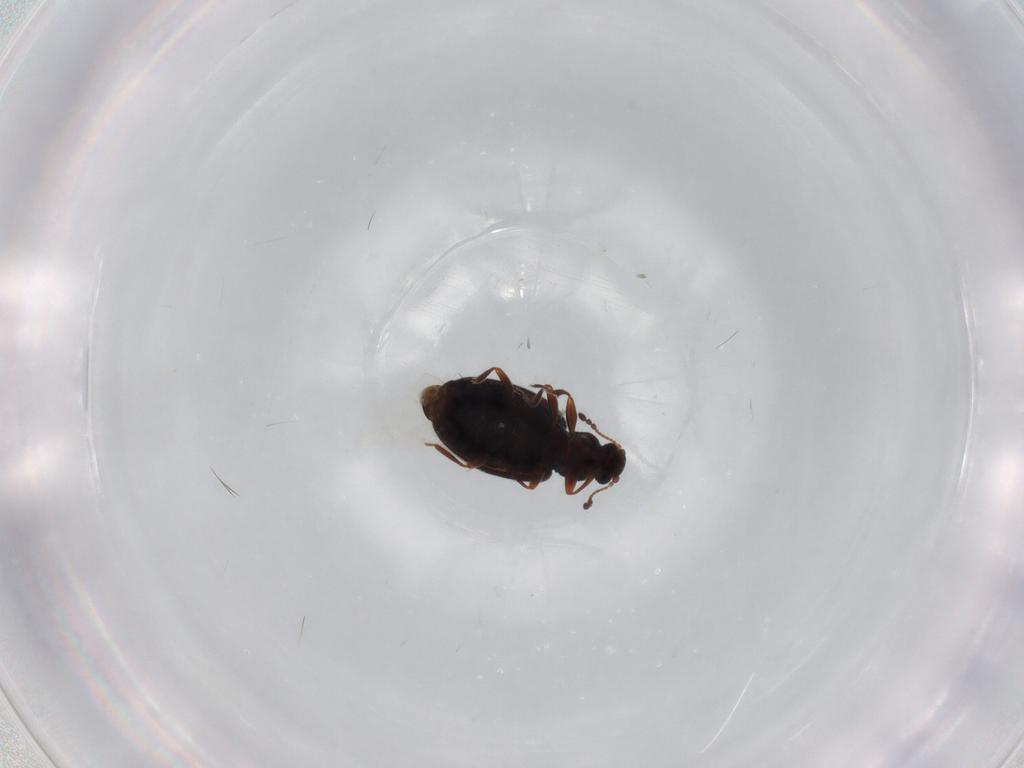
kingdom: Animalia
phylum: Arthropoda
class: Insecta
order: Coleoptera
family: Latridiidae
